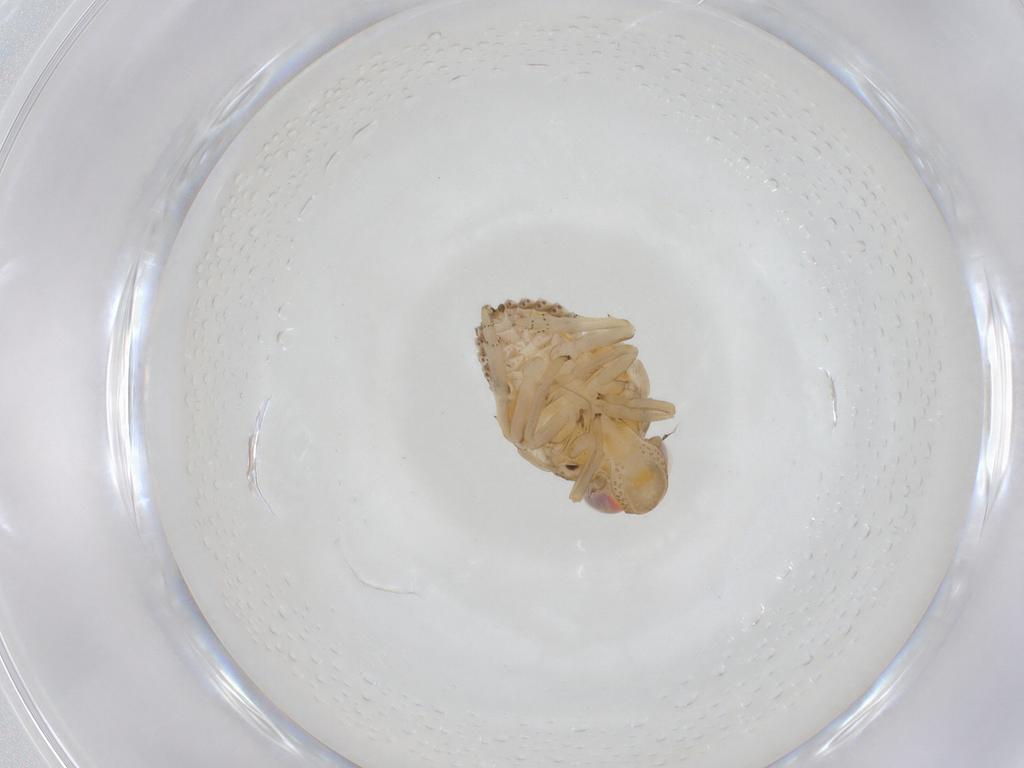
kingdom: Animalia
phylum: Arthropoda
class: Insecta
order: Hemiptera
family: Issidae
